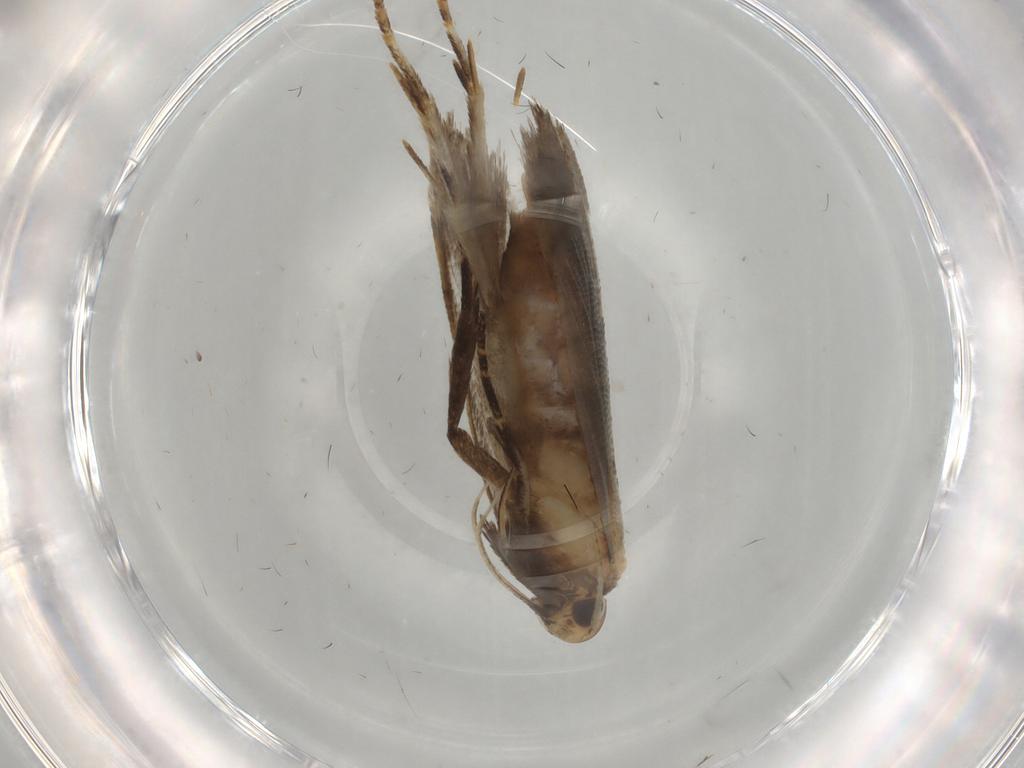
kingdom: Animalia
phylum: Arthropoda
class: Insecta
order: Lepidoptera
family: Gelechiidae
